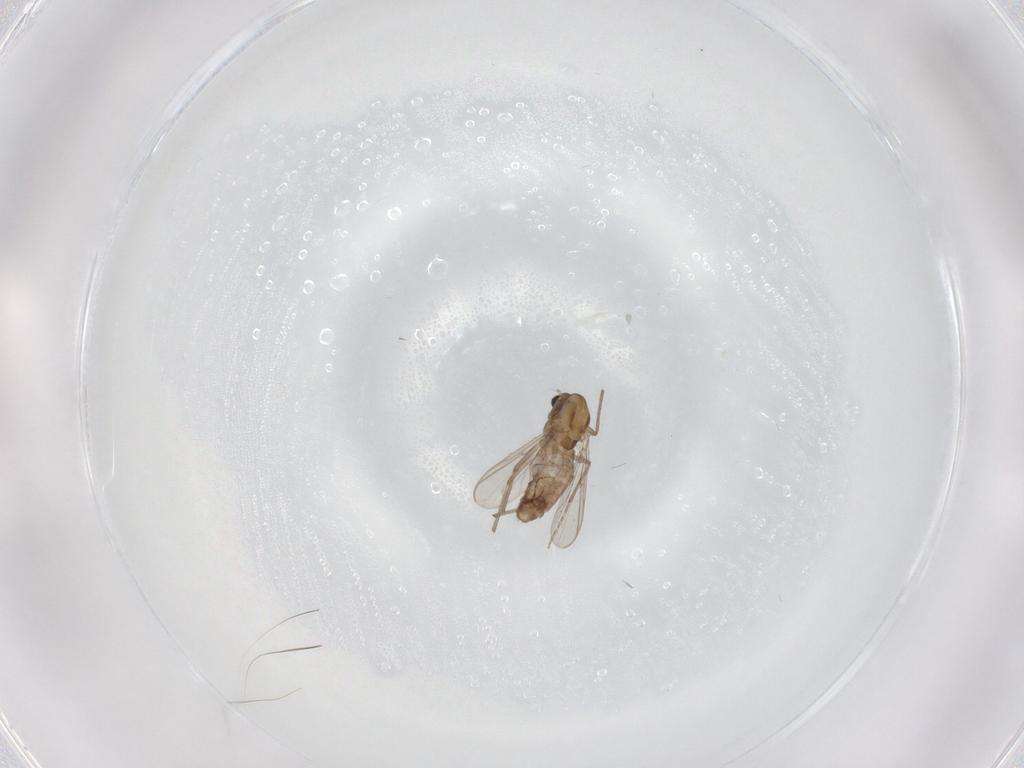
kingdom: Animalia
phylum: Arthropoda
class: Insecta
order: Diptera
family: Chironomidae
